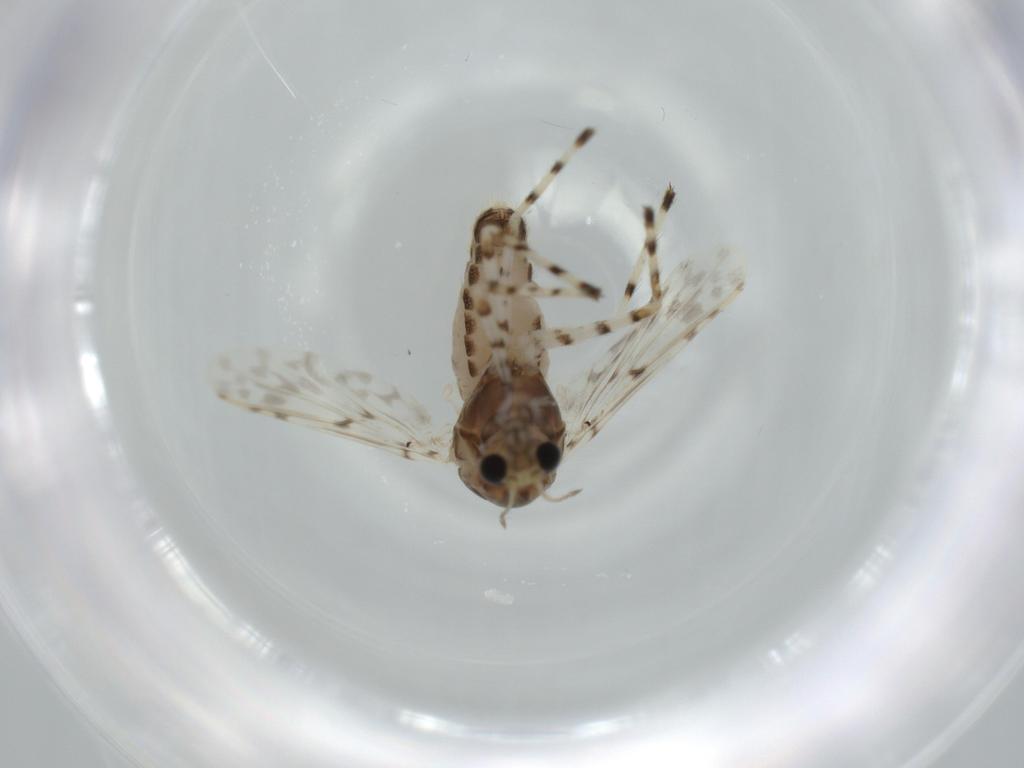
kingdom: Animalia
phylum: Arthropoda
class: Insecta
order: Diptera
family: Chironomidae
